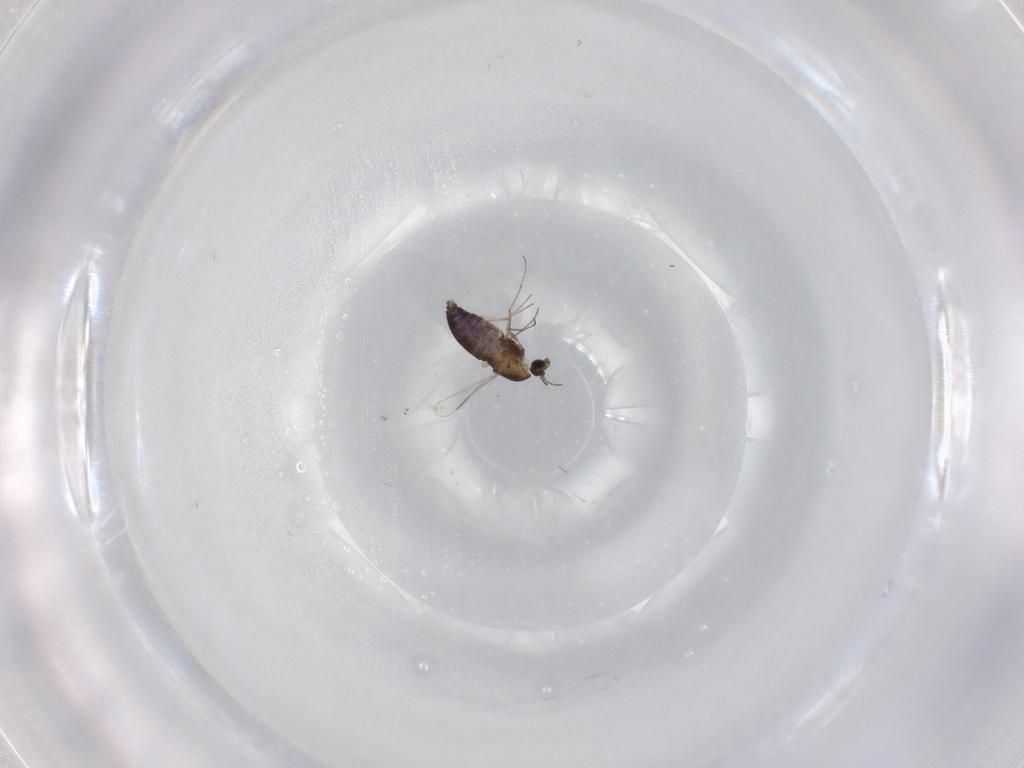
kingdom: Animalia
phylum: Arthropoda
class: Insecta
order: Diptera
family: Chironomidae
